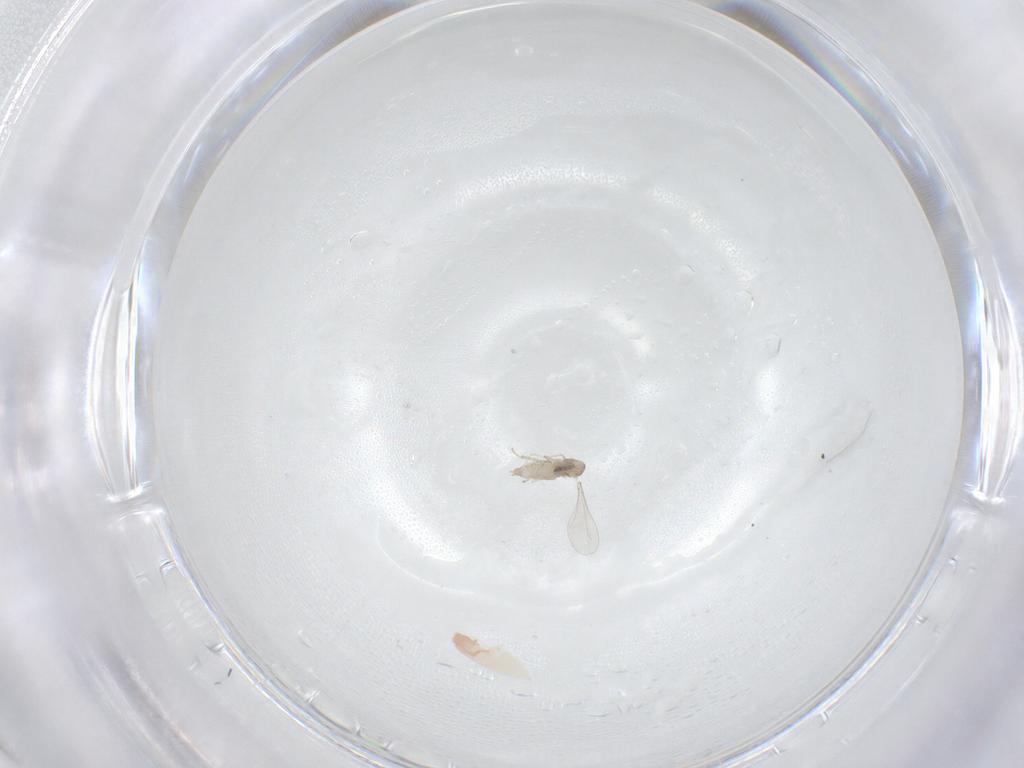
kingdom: Animalia
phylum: Arthropoda
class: Insecta
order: Diptera
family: Cecidomyiidae
